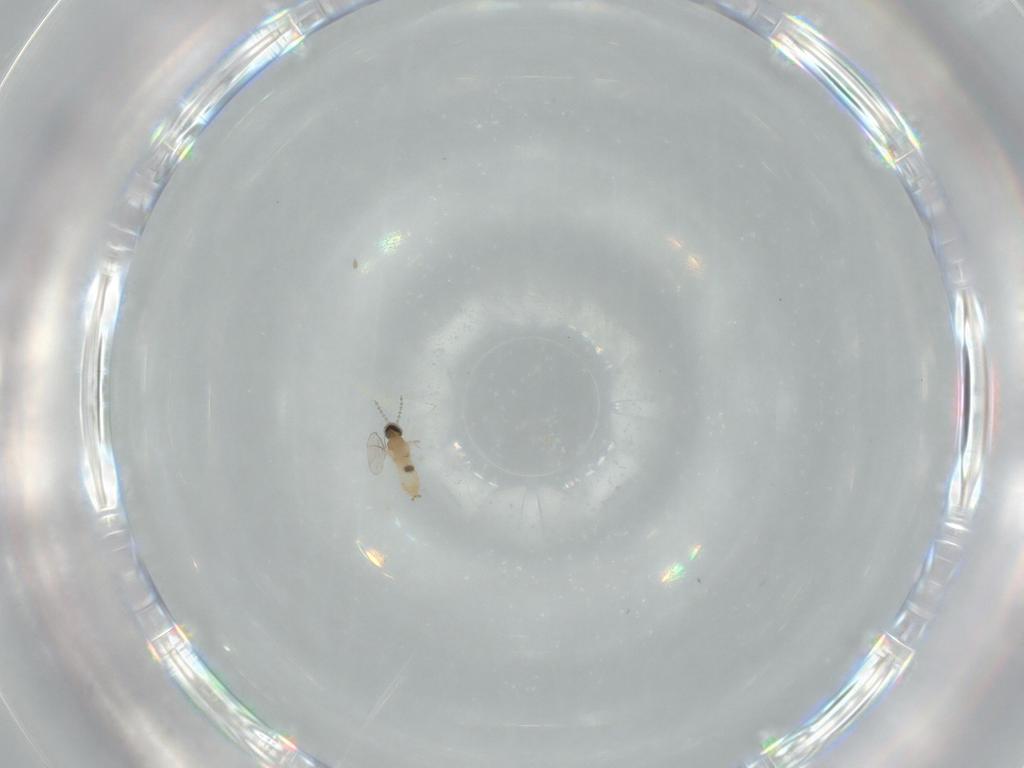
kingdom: Animalia
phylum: Arthropoda
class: Insecta
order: Diptera
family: Cecidomyiidae
